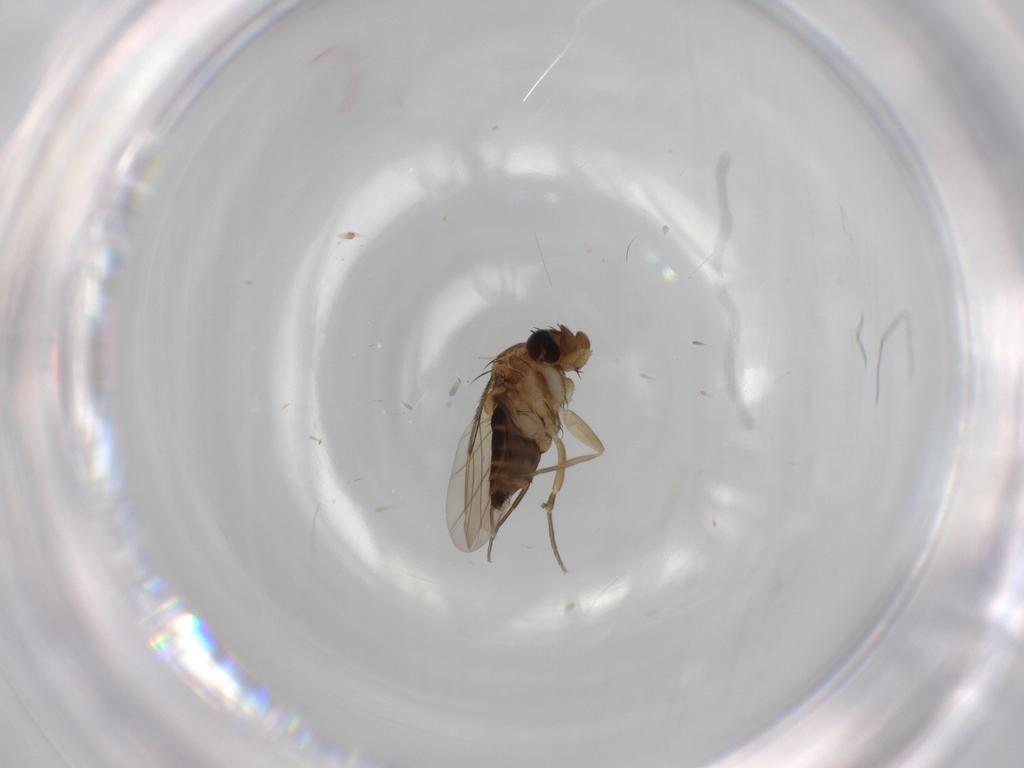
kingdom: Animalia
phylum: Arthropoda
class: Insecta
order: Diptera
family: Phoridae
